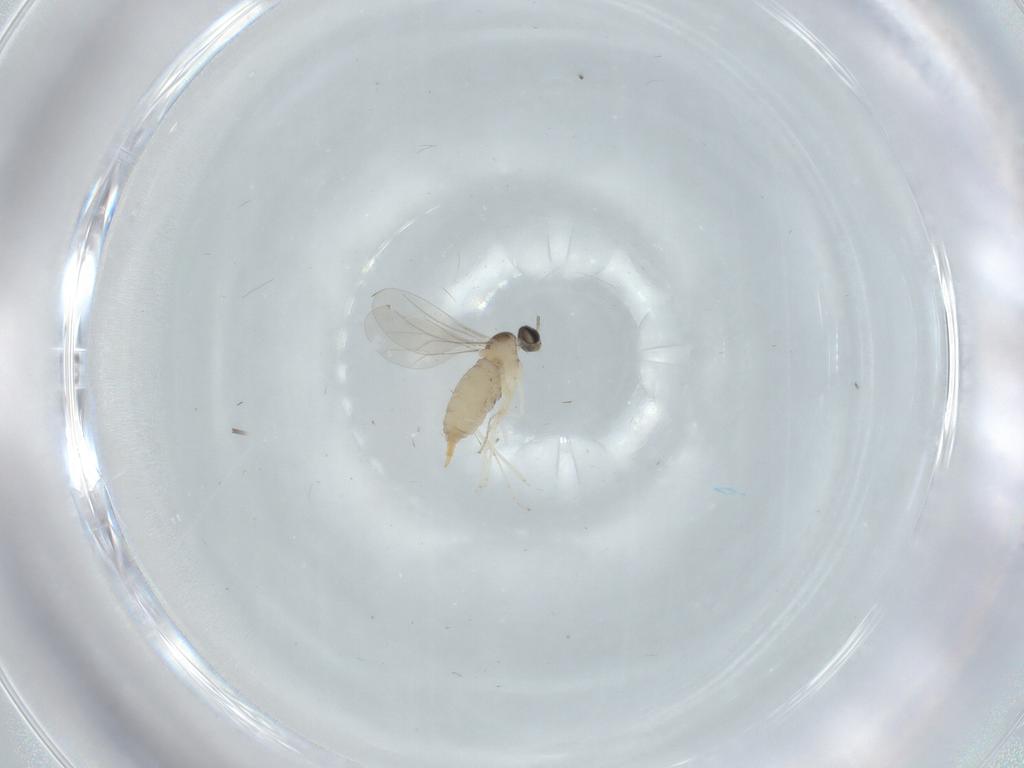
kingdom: Animalia
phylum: Arthropoda
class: Insecta
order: Diptera
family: Cecidomyiidae
